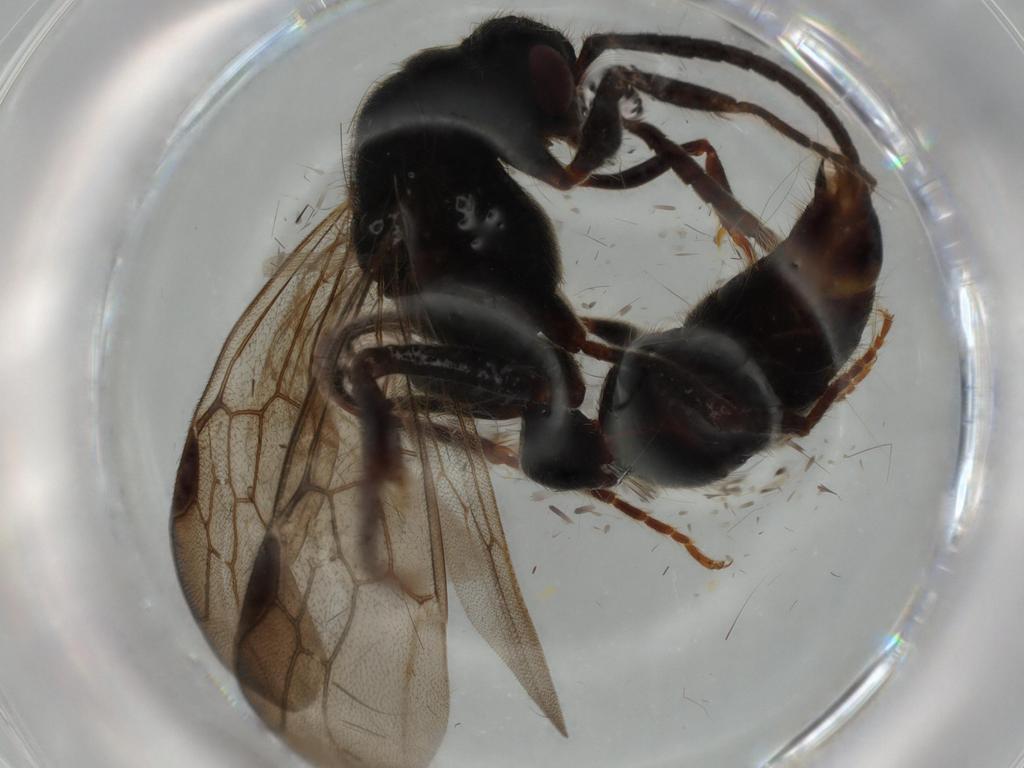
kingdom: Animalia
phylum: Arthropoda
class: Insecta
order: Hymenoptera
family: Formicidae
